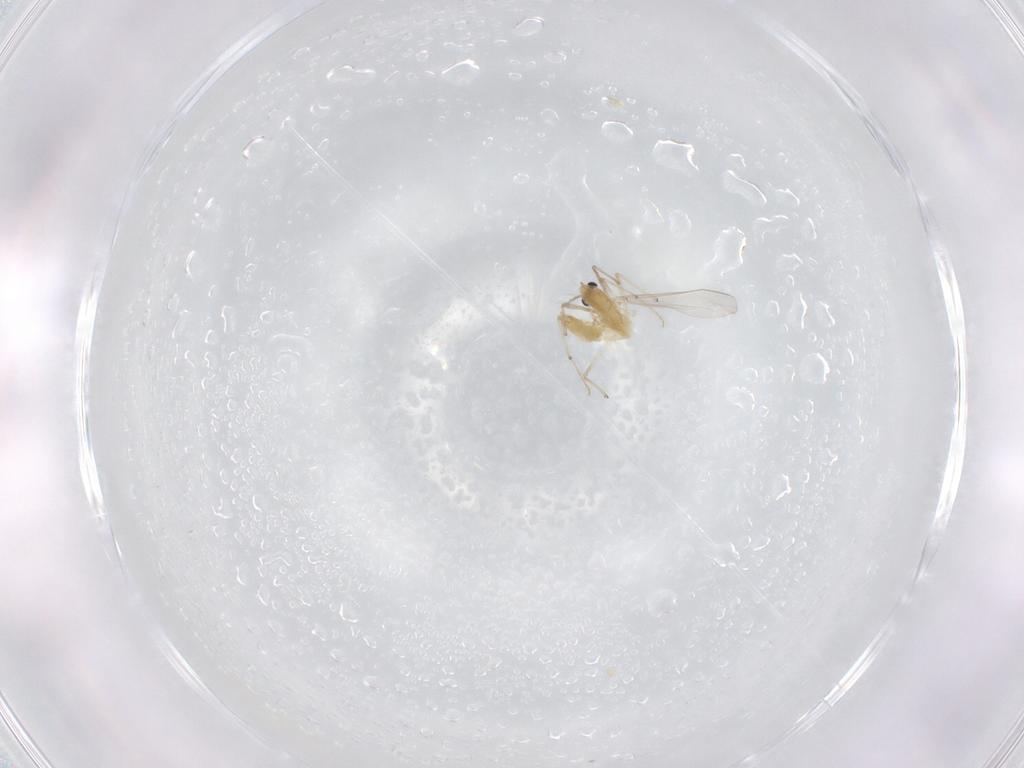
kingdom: Animalia
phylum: Arthropoda
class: Insecta
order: Diptera
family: Chironomidae
